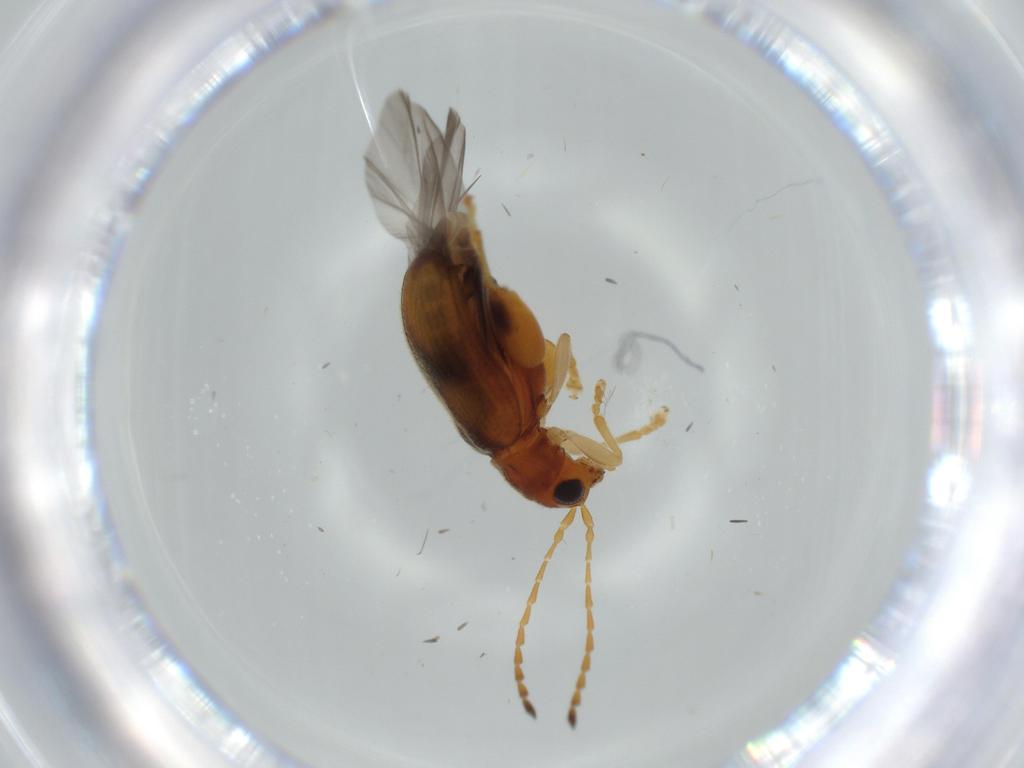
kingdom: Animalia
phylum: Arthropoda
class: Insecta
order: Coleoptera
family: Chrysomelidae
